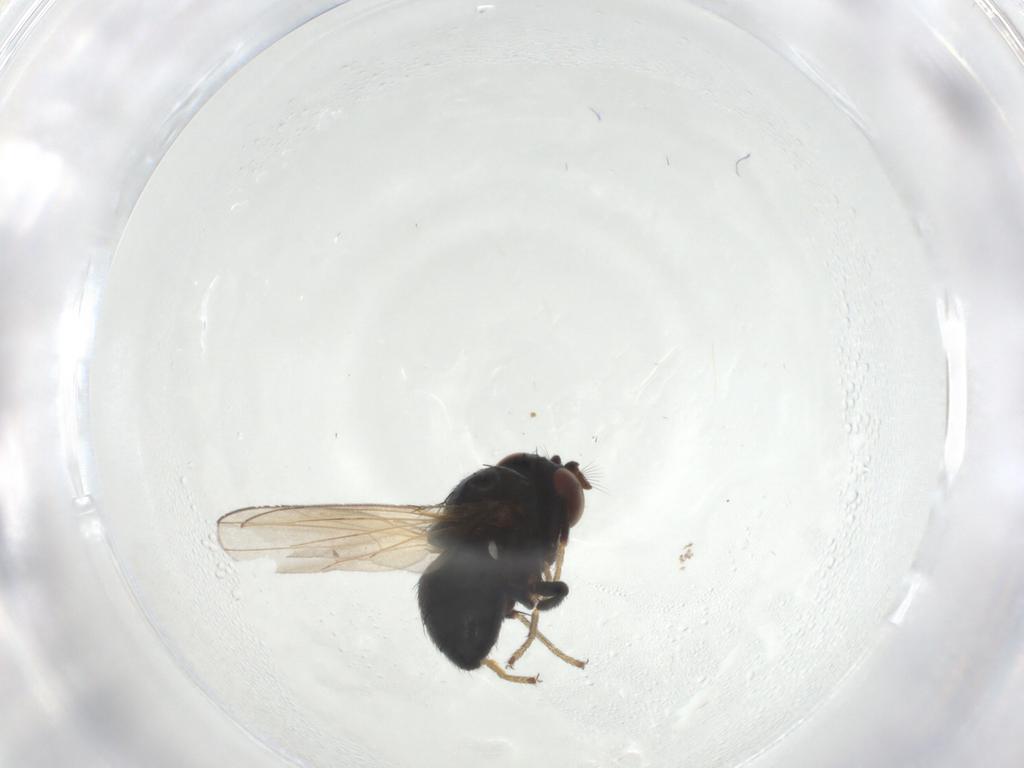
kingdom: Animalia
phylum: Arthropoda
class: Insecta
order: Diptera
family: Ephydridae
